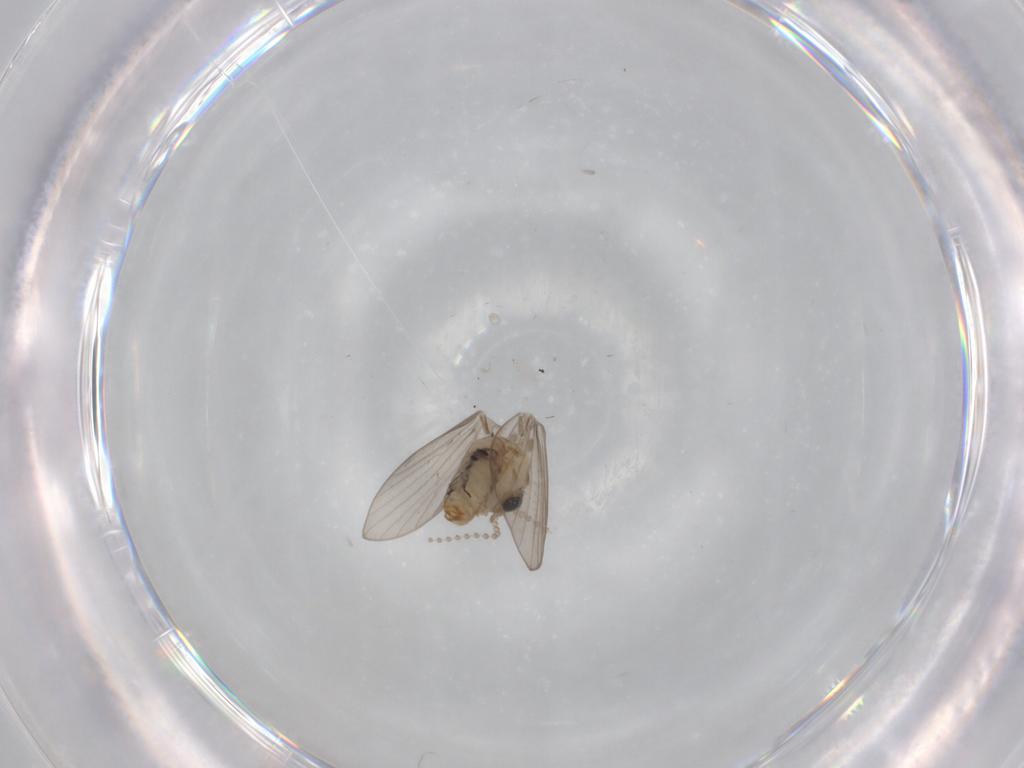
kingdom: Animalia
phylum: Arthropoda
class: Insecta
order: Diptera
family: Psychodidae
